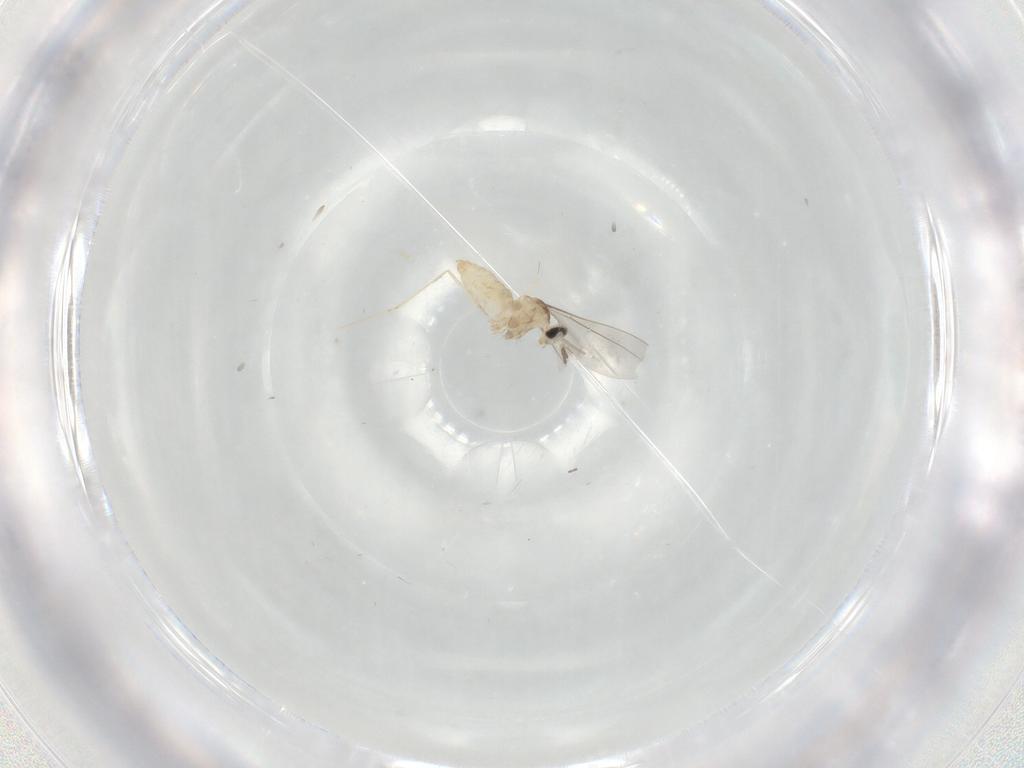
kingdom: Animalia
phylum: Arthropoda
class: Insecta
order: Diptera
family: Cecidomyiidae
